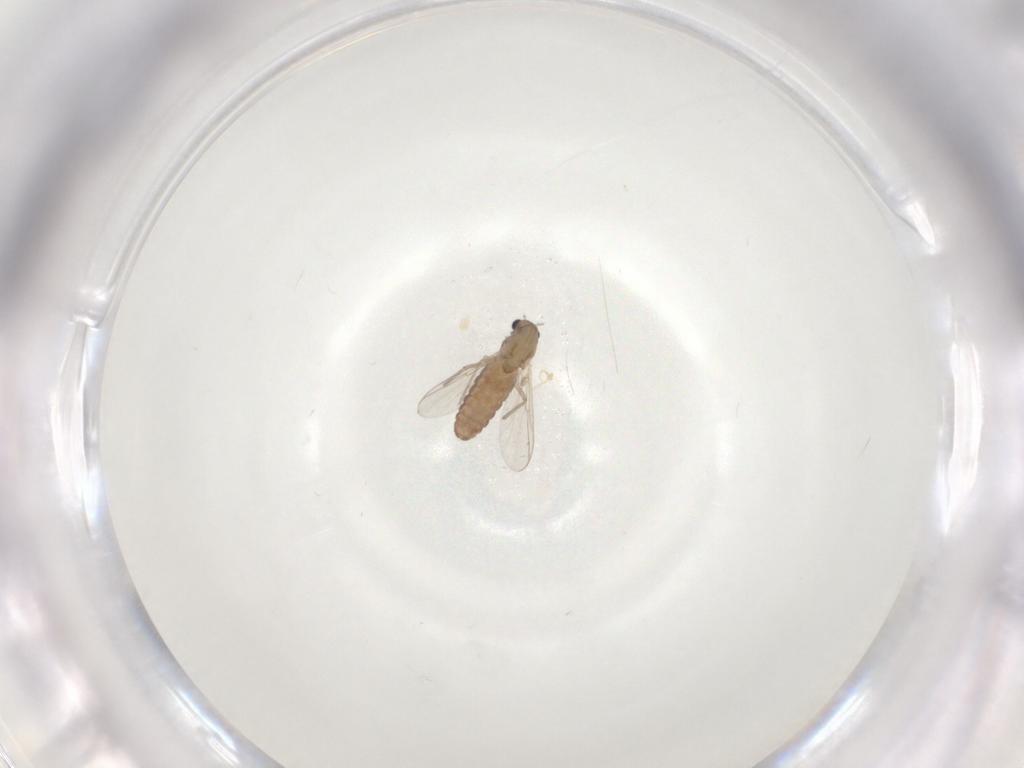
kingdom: Animalia
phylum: Arthropoda
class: Insecta
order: Diptera
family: Chironomidae
